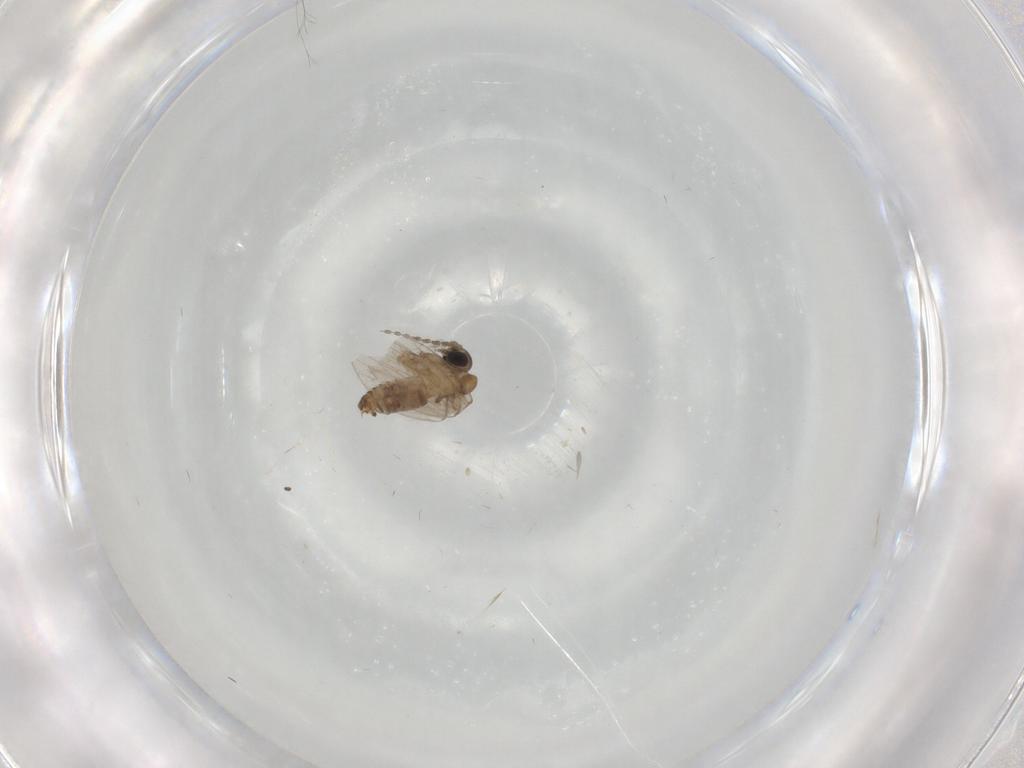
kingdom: Animalia
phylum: Arthropoda
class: Insecta
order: Diptera
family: Cecidomyiidae
